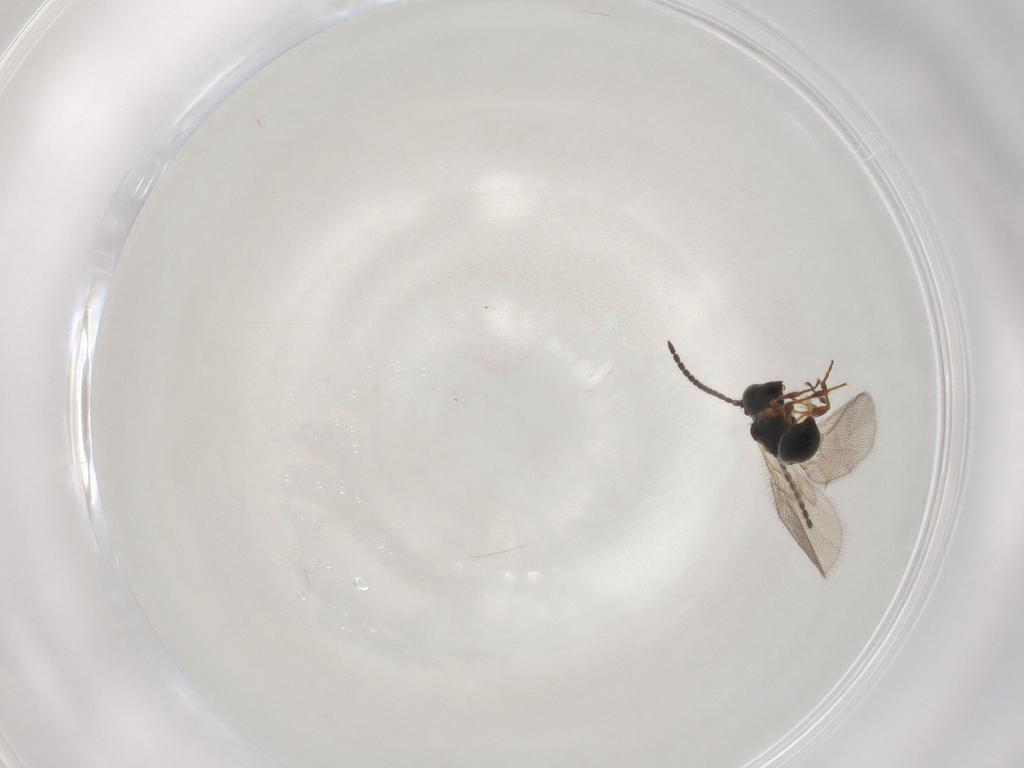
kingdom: Animalia
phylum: Arthropoda
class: Insecta
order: Hymenoptera
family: Diapriidae
